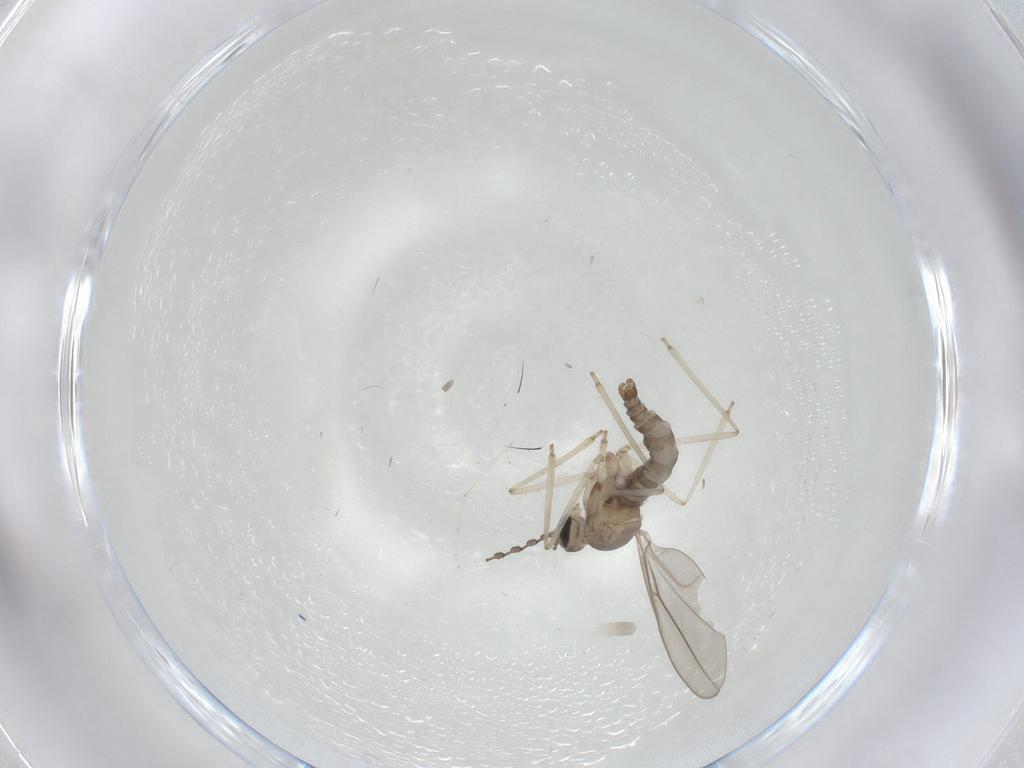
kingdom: Animalia
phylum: Arthropoda
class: Insecta
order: Diptera
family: Cecidomyiidae
